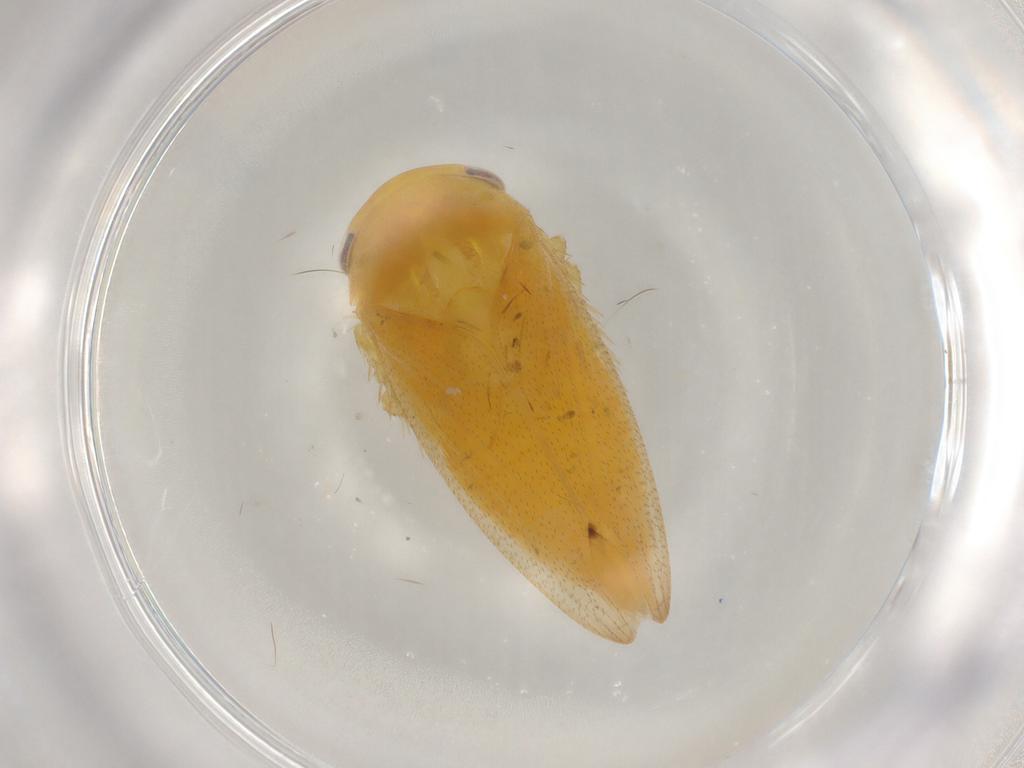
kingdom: Animalia
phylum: Arthropoda
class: Insecta
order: Hemiptera
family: Cicadellidae
